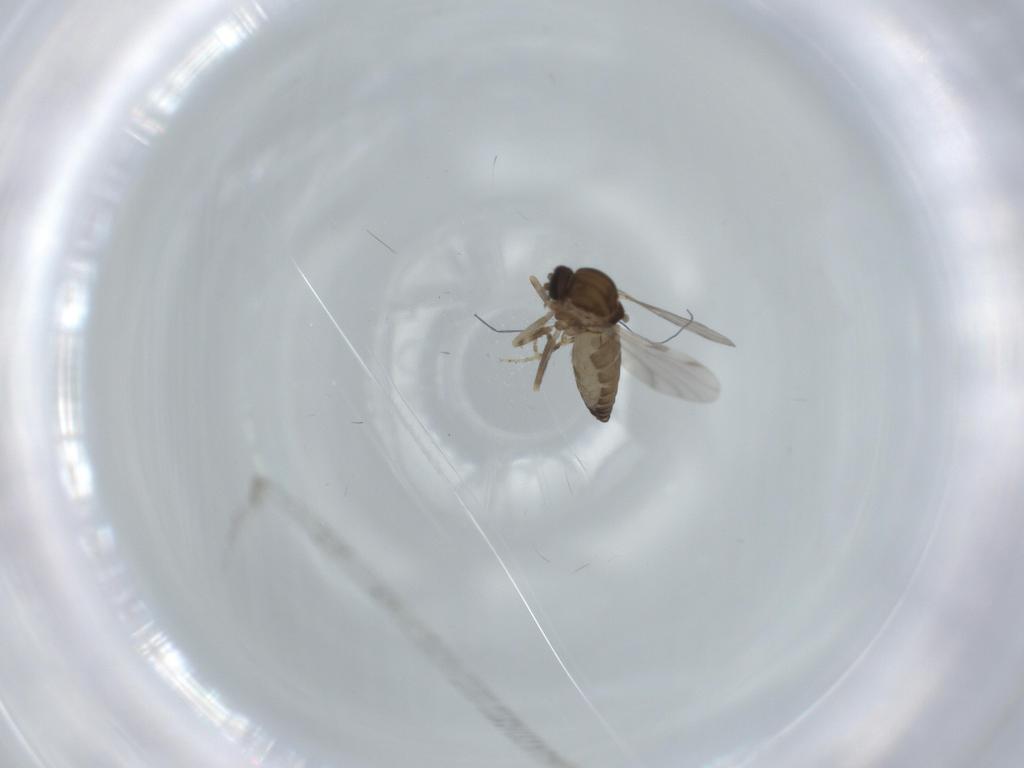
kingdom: Animalia
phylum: Arthropoda
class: Insecta
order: Diptera
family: Ceratopogonidae
